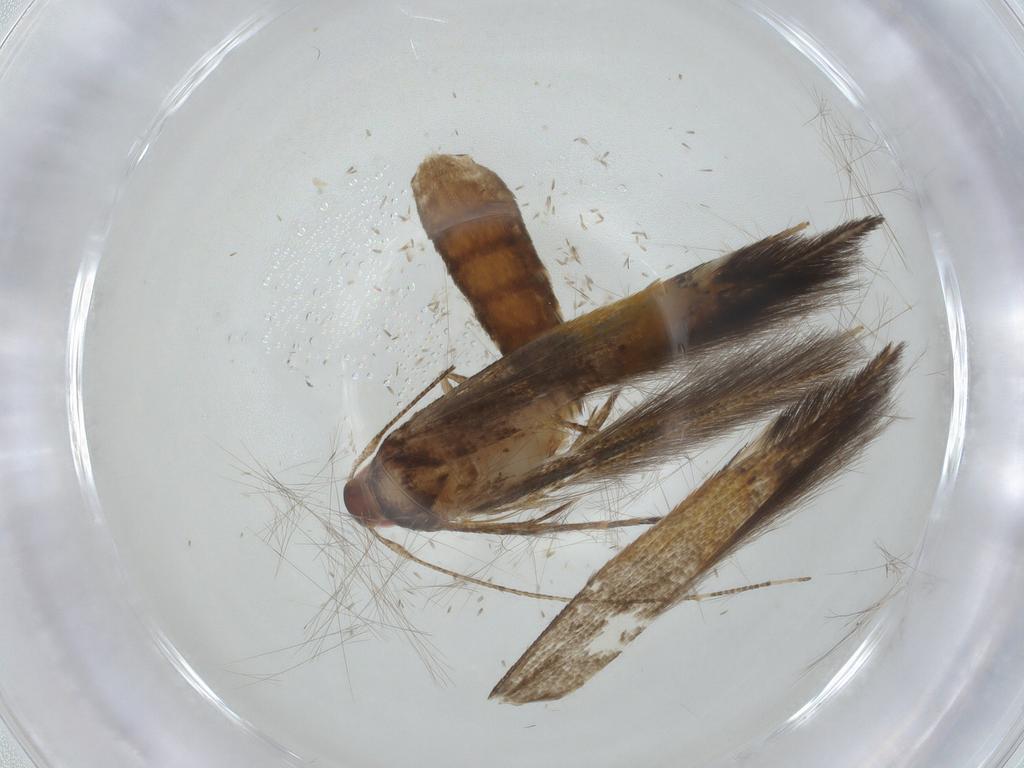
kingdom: Animalia
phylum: Arthropoda
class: Insecta
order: Lepidoptera
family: Cosmopterigidae
